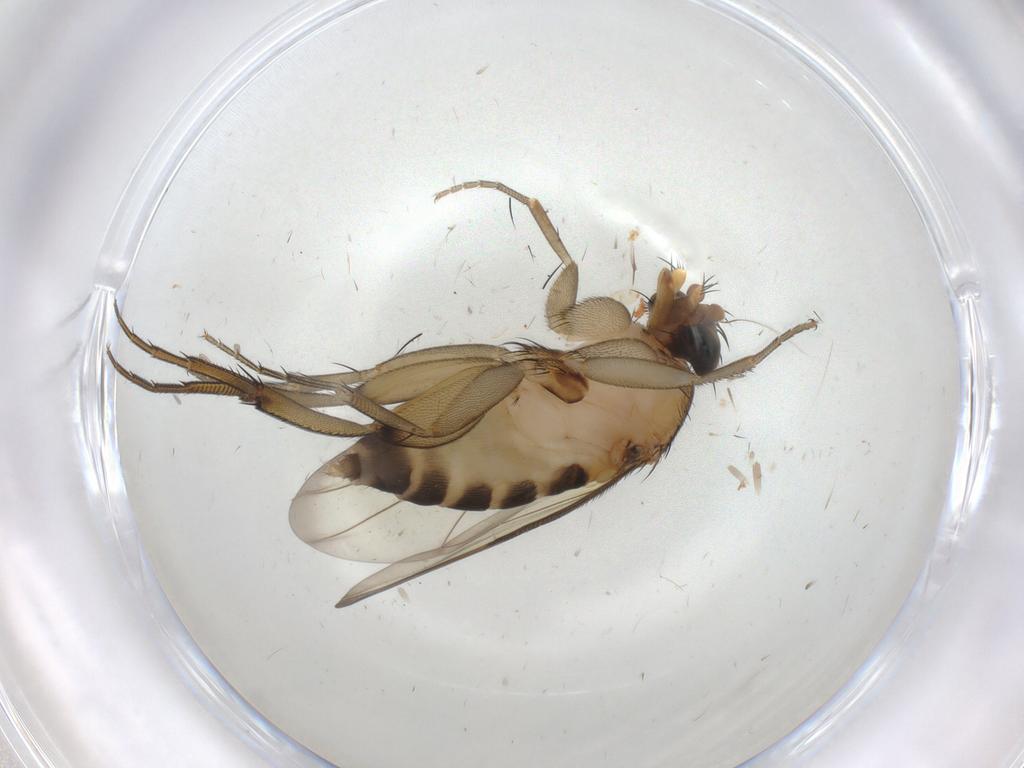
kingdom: Animalia
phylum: Arthropoda
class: Insecta
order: Diptera
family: Phoridae
